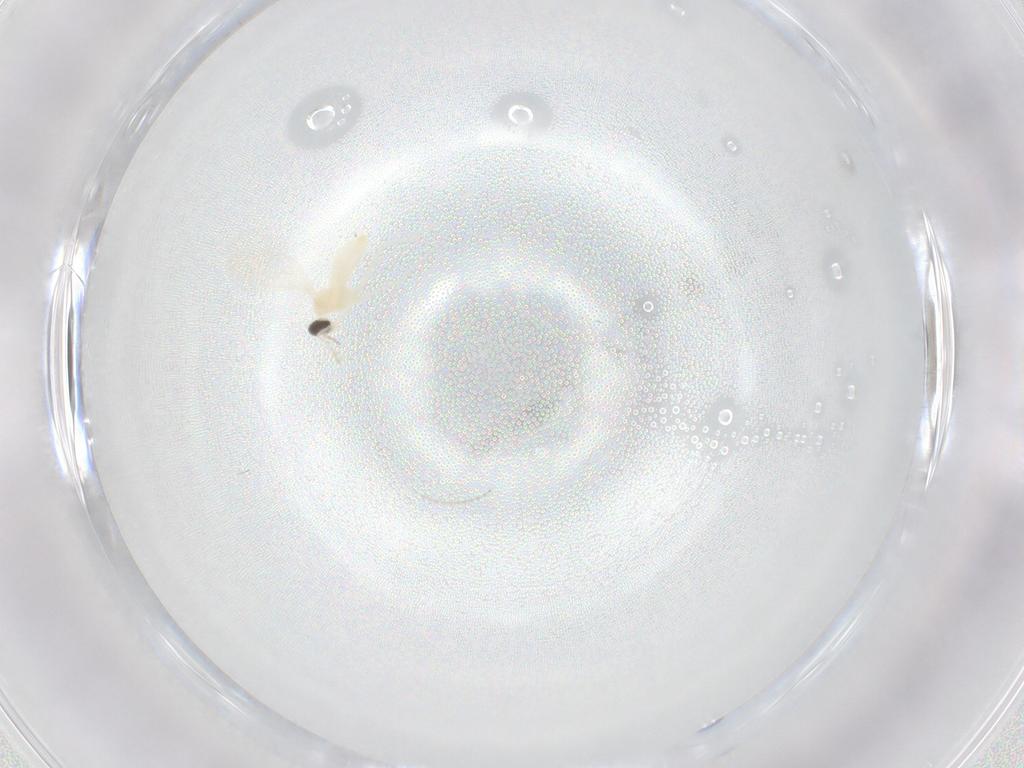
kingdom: Animalia
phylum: Arthropoda
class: Insecta
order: Diptera
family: Ceratopogonidae
